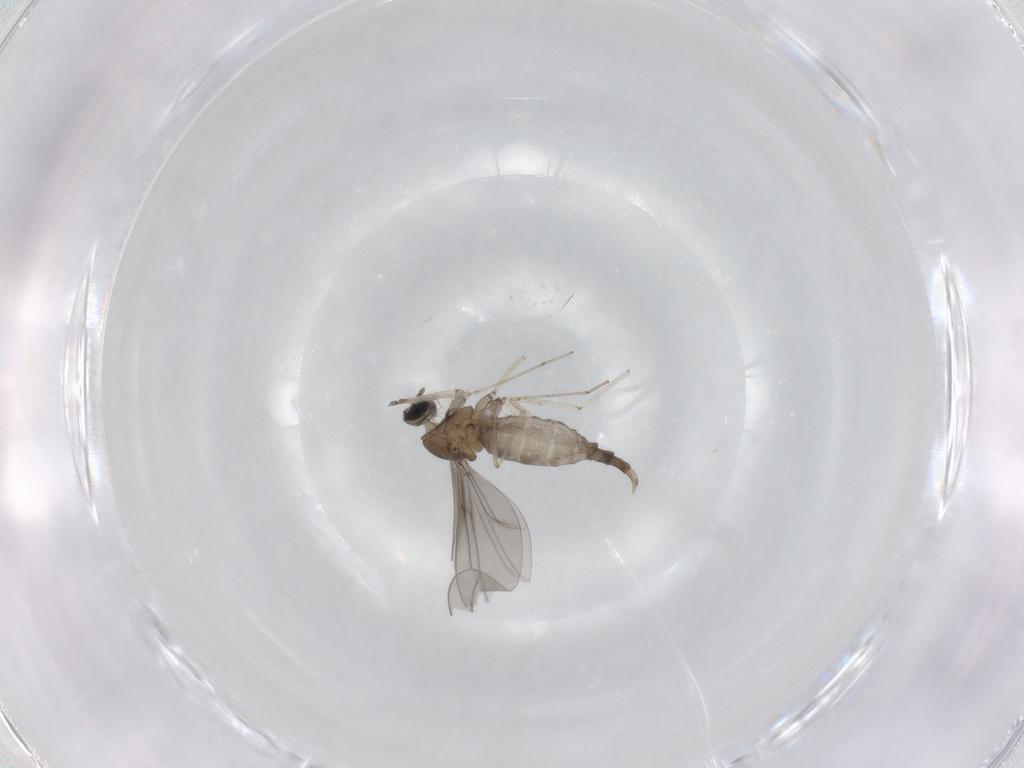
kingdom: Animalia
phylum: Arthropoda
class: Insecta
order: Diptera
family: Cecidomyiidae
